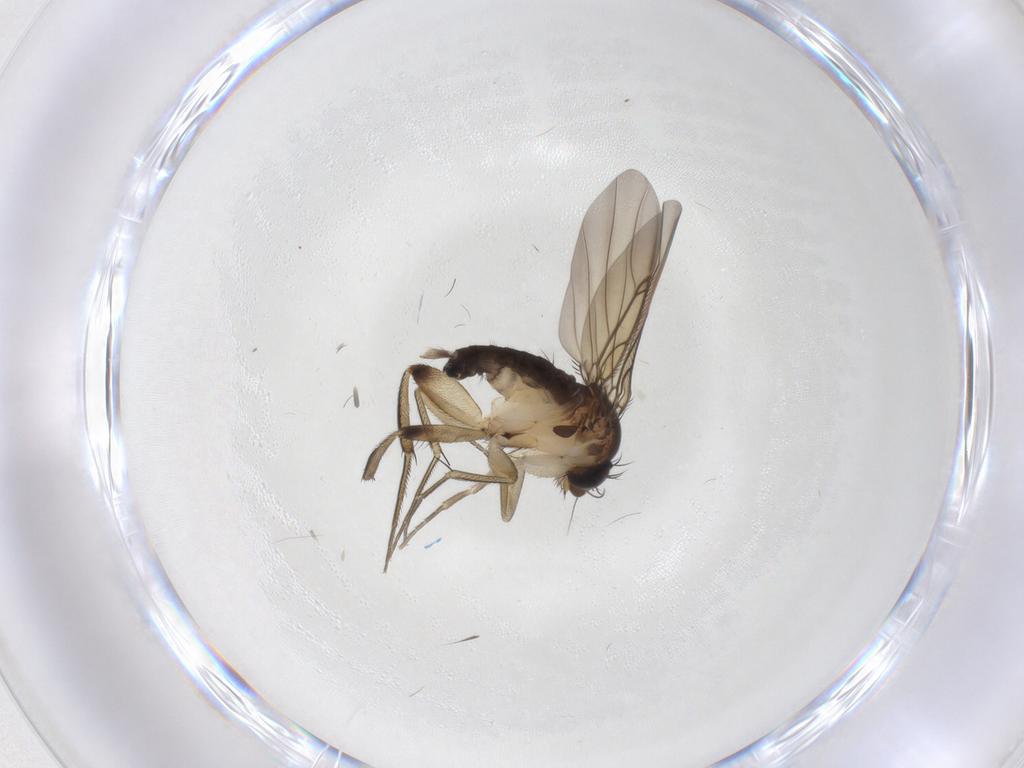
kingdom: Animalia
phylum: Arthropoda
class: Insecta
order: Diptera
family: Phoridae
